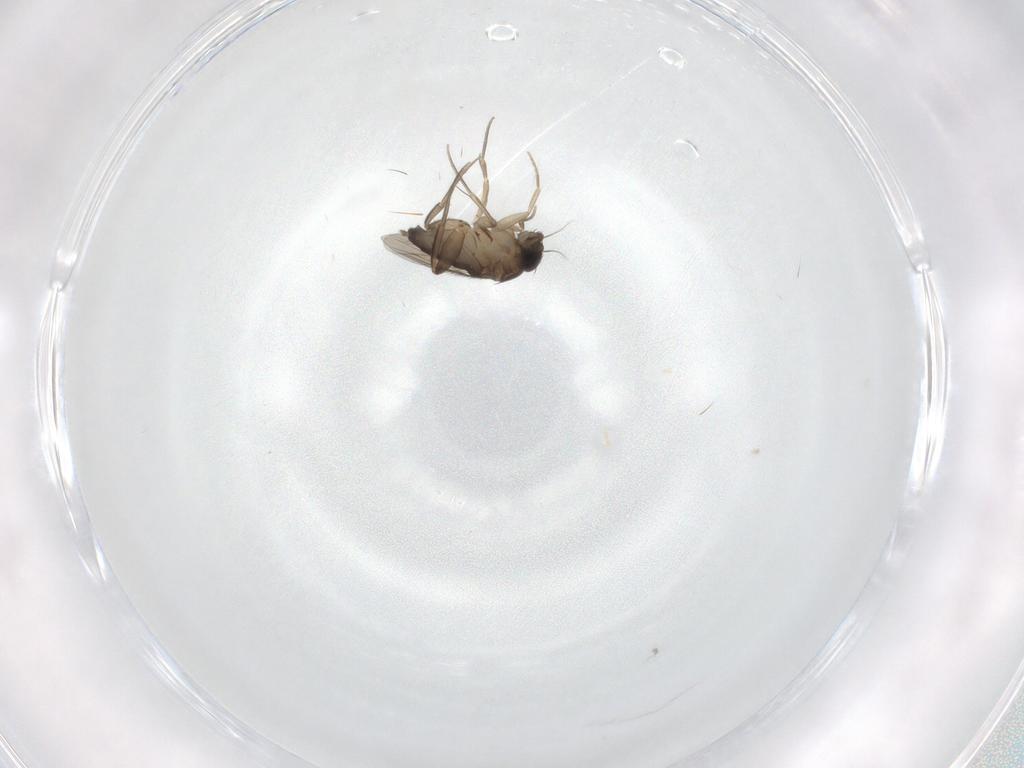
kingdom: Animalia
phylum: Arthropoda
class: Insecta
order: Diptera
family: Phoridae
